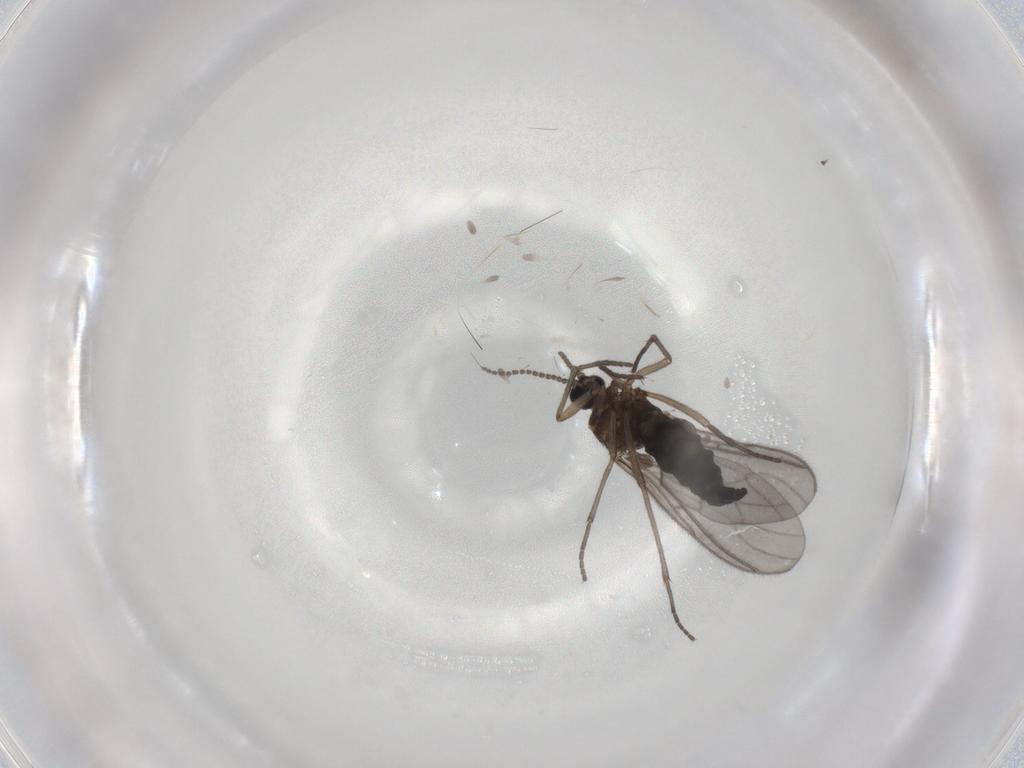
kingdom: Animalia
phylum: Arthropoda
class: Insecta
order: Diptera
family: Sciaridae
